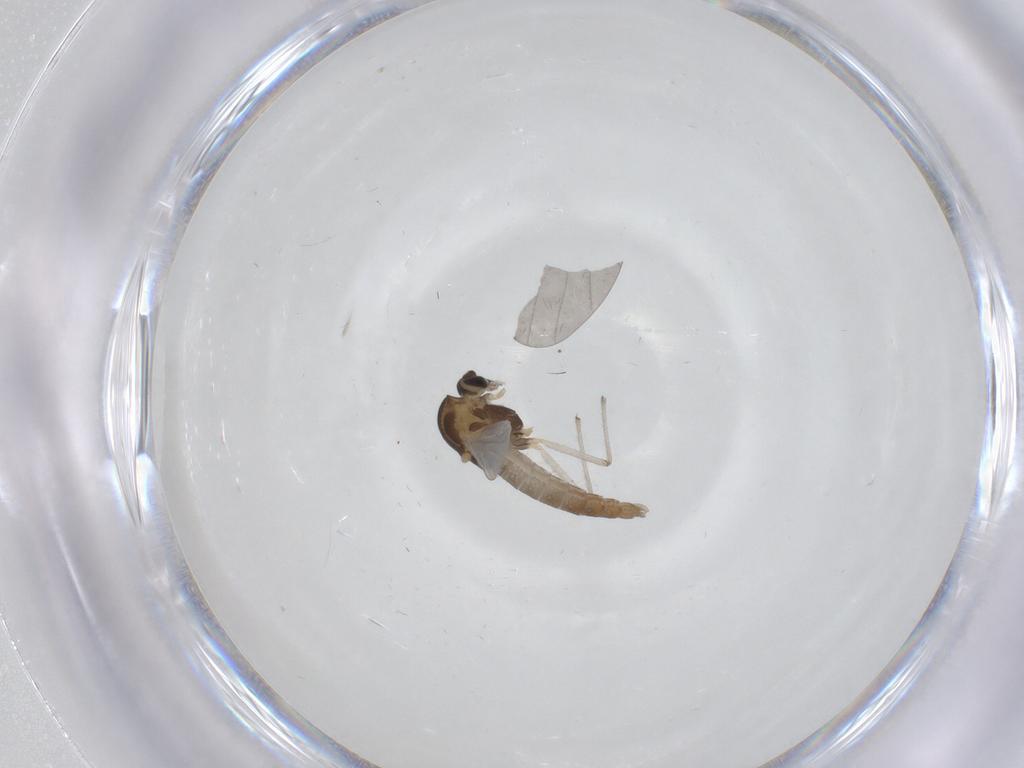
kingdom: Animalia
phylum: Arthropoda
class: Insecta
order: Diptera
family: Chironomidae
